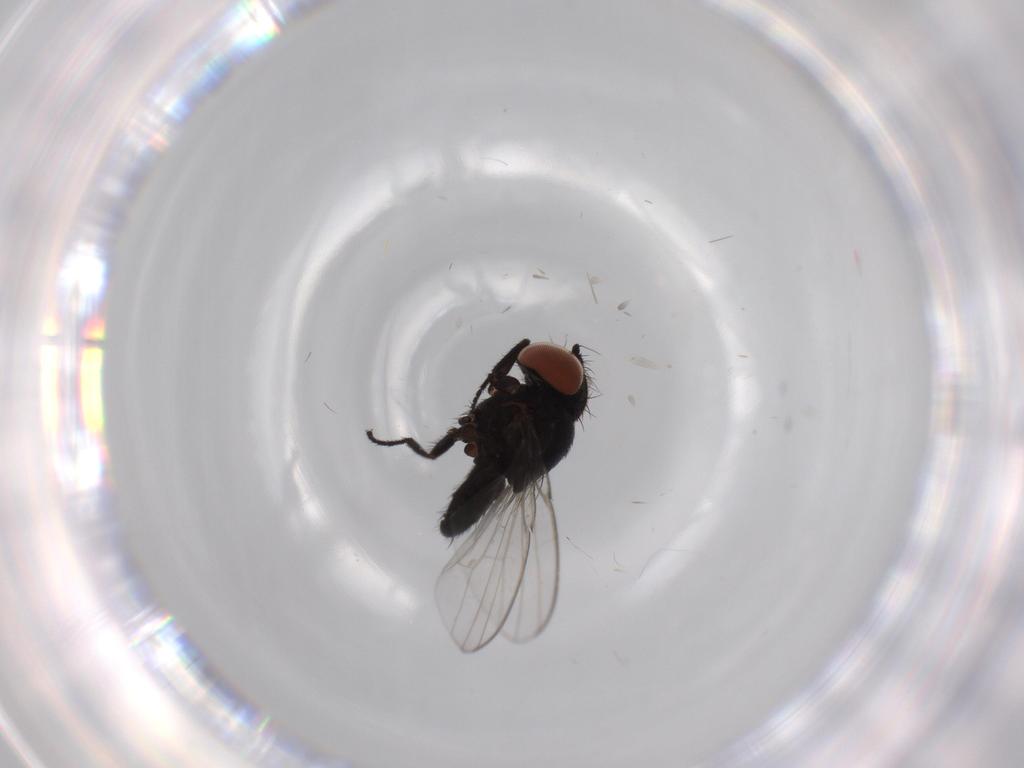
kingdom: Animalia
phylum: Arthropoda
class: Insecta
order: Diptera
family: Milichiidae
